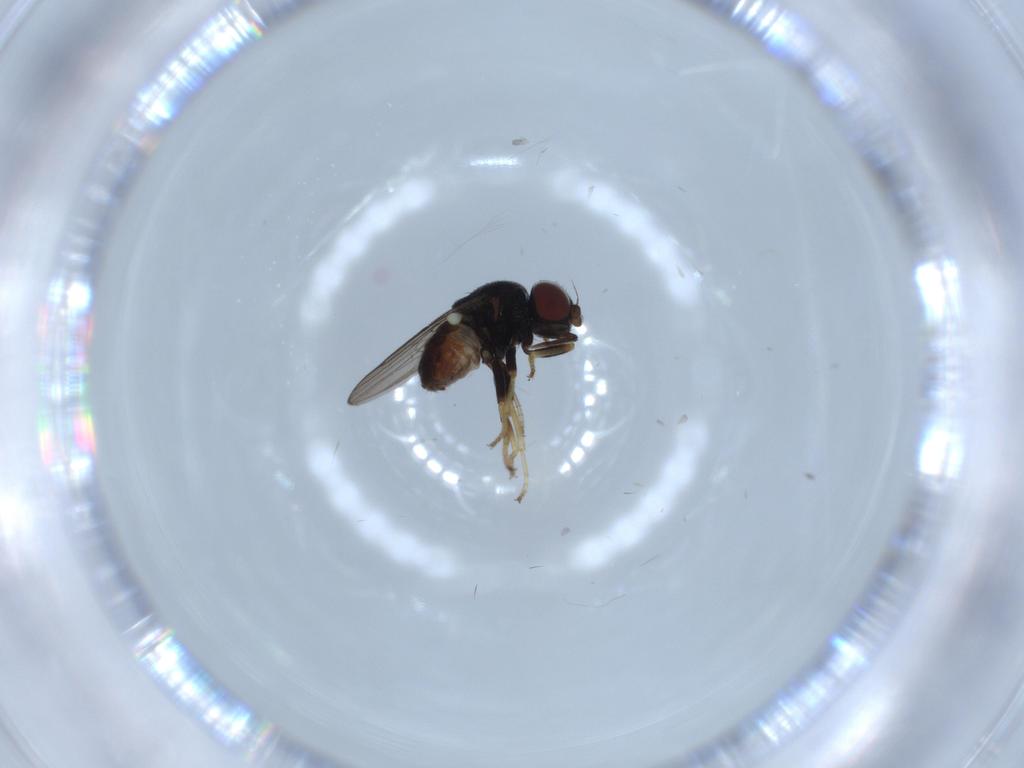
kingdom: Animalia
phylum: Arthropoda
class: Insecta
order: Diptera
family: Chloropidae
